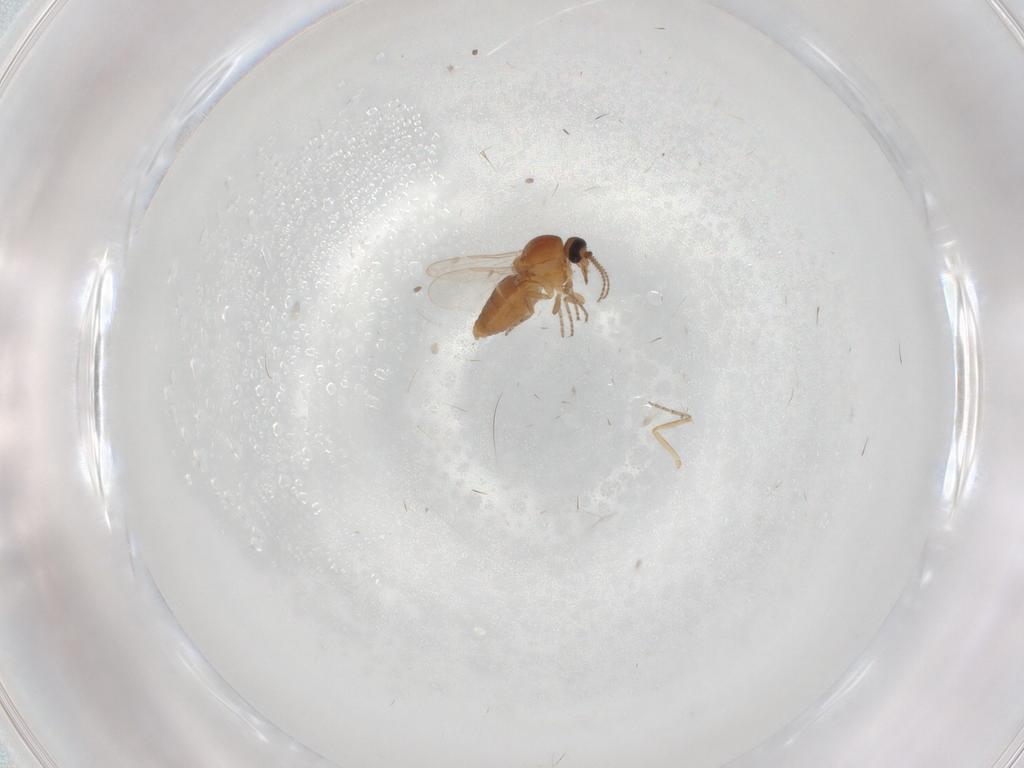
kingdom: Animalia
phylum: Arthropoda
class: Insecta
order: Diptera
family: Ceratopogonidae
